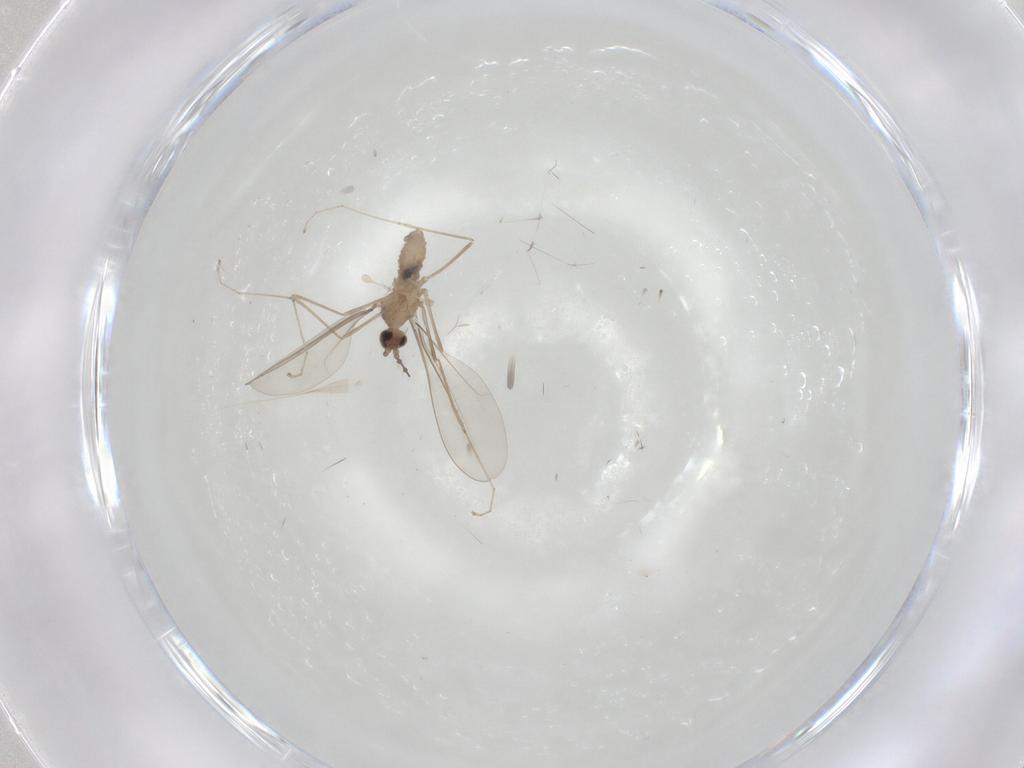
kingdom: Animalia
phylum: Arthropoda
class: Insecta
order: Diptera
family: Cecidomyiidae
